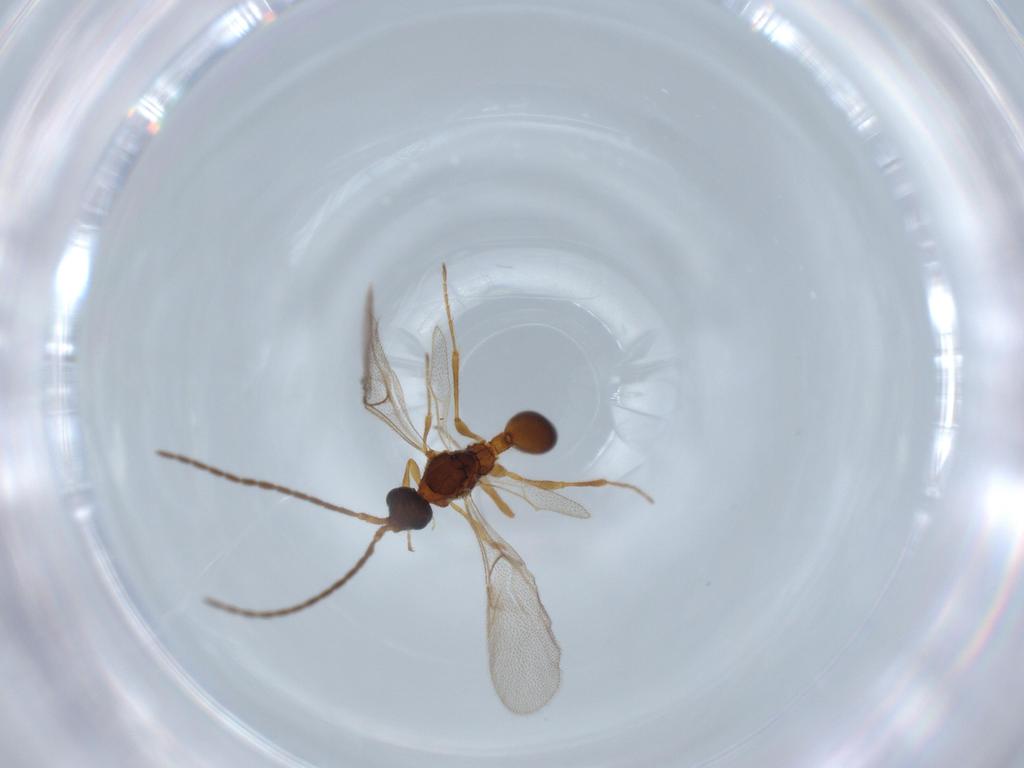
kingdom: Animalia
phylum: Arthropoda
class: Insecta
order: Hymenoptera
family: Diapriidae
